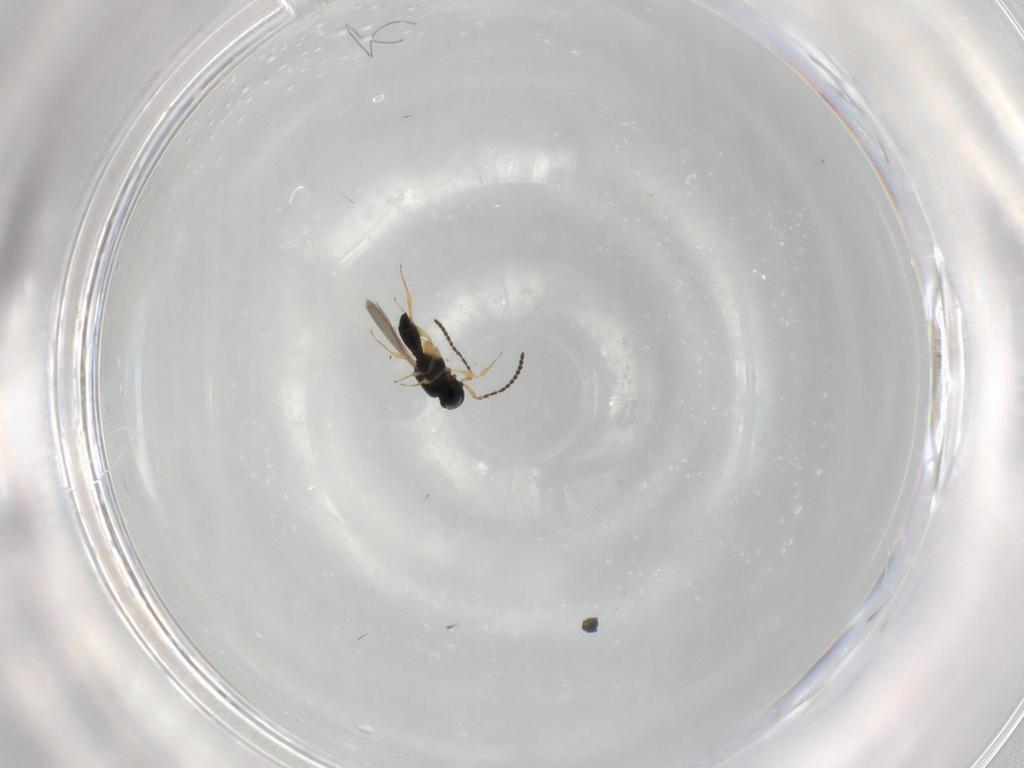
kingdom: Animalia
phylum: Arthropoda
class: Insecta
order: Hymenoptera
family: Scelionidae
